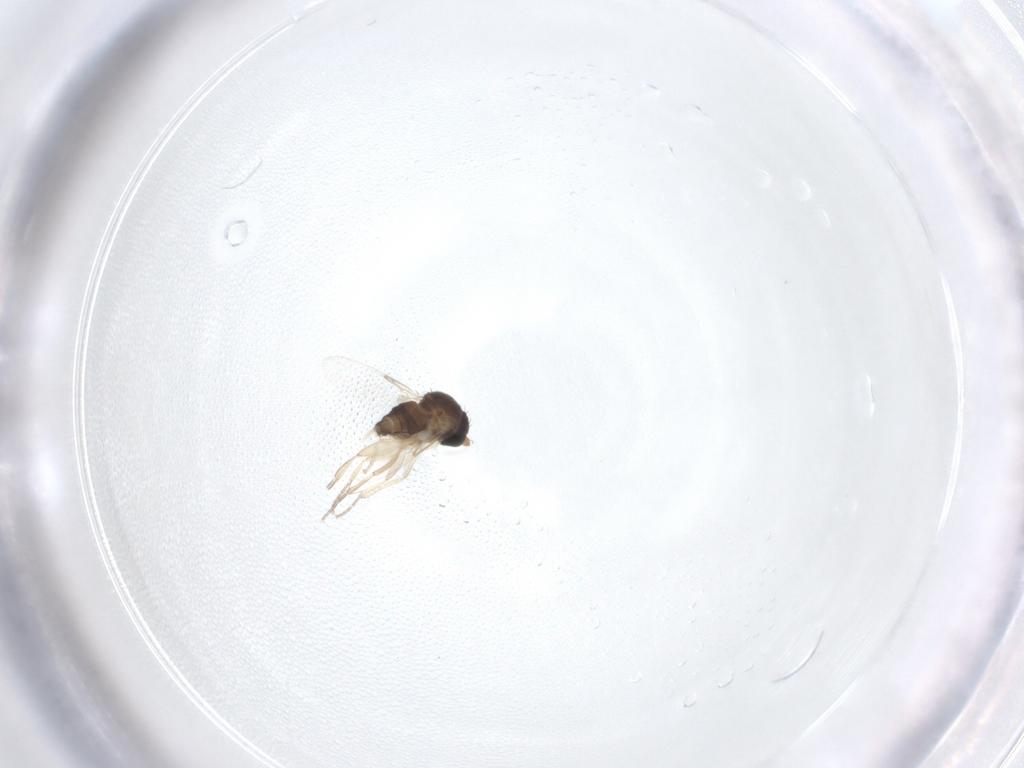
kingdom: Animalia
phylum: Arthropoda
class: Insecta
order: Diptera
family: Phoridae
